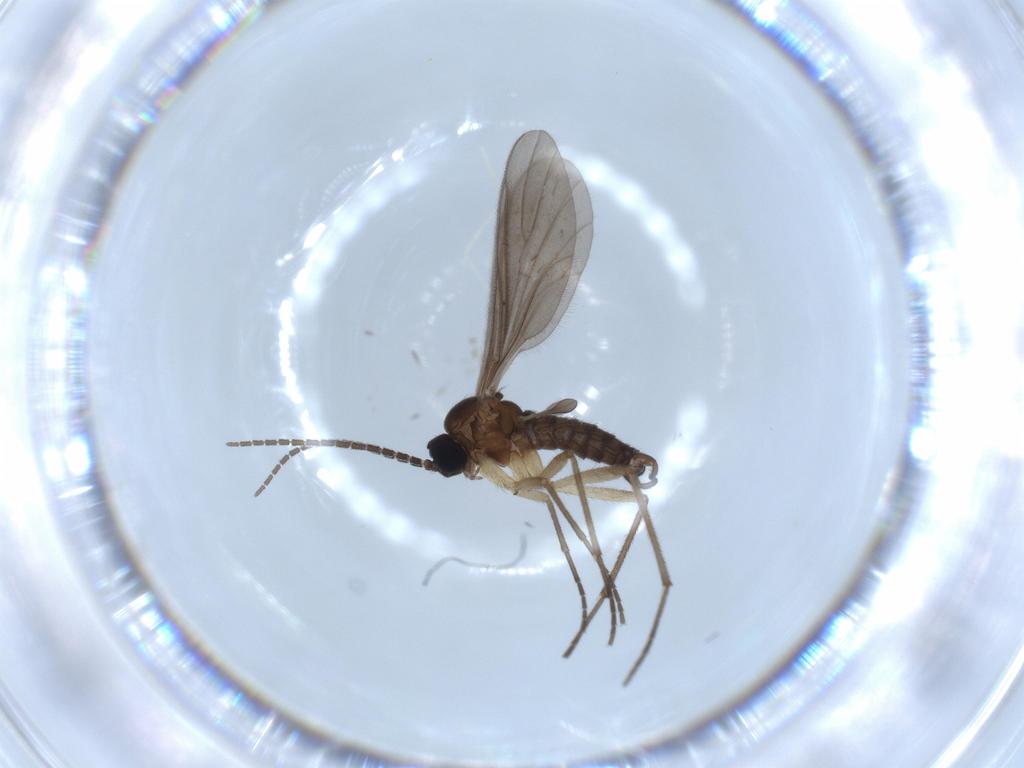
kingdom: Animalia
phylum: Arthropoda
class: Insecta
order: Diptera
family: Sciaridae
